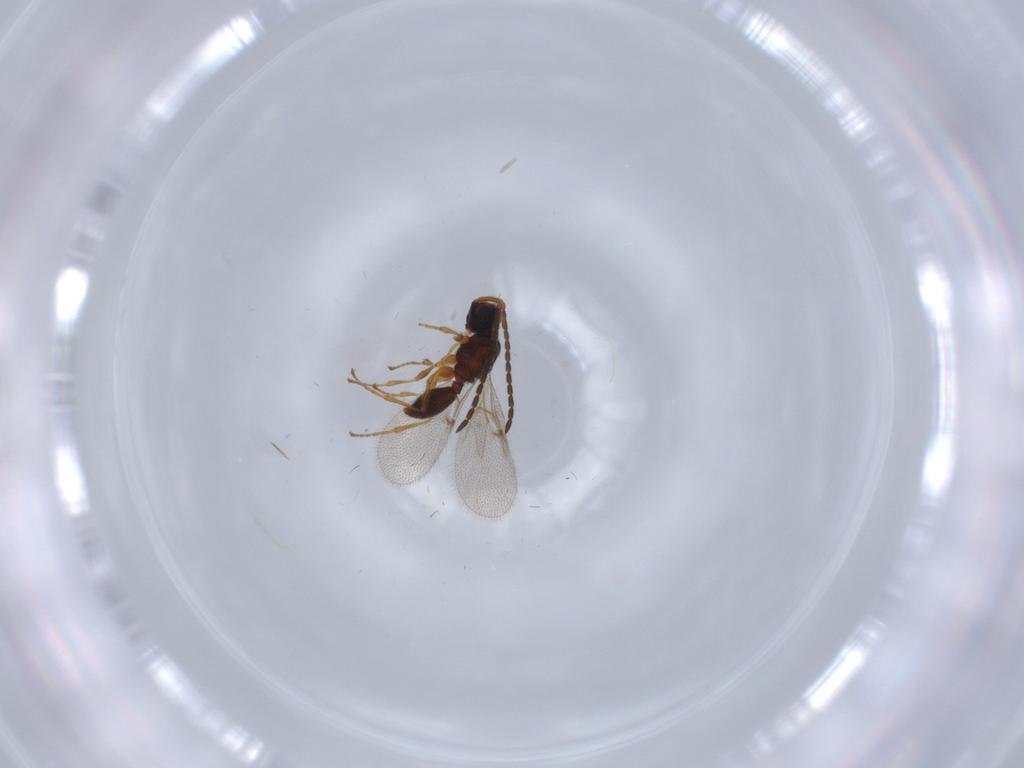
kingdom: Animalia
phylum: Arthropoda
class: Insecta
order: Hymenoptera
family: Diapriidae
